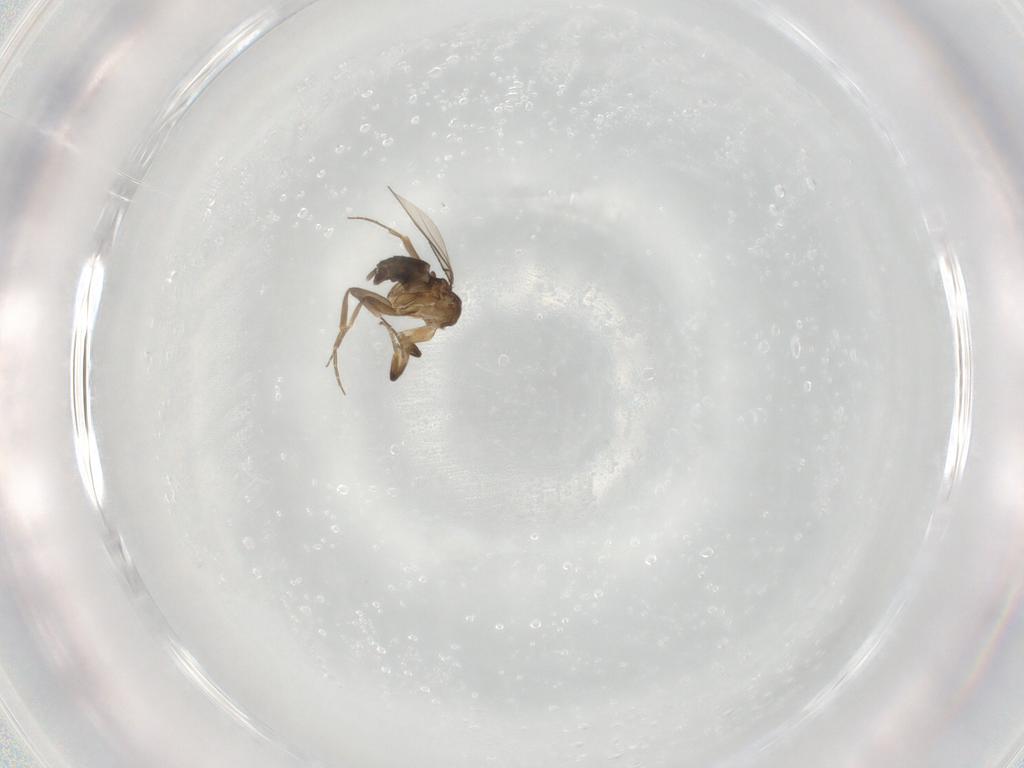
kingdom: Animalia
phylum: Arthropoda
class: Insecta
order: Diptera
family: Phoridae
